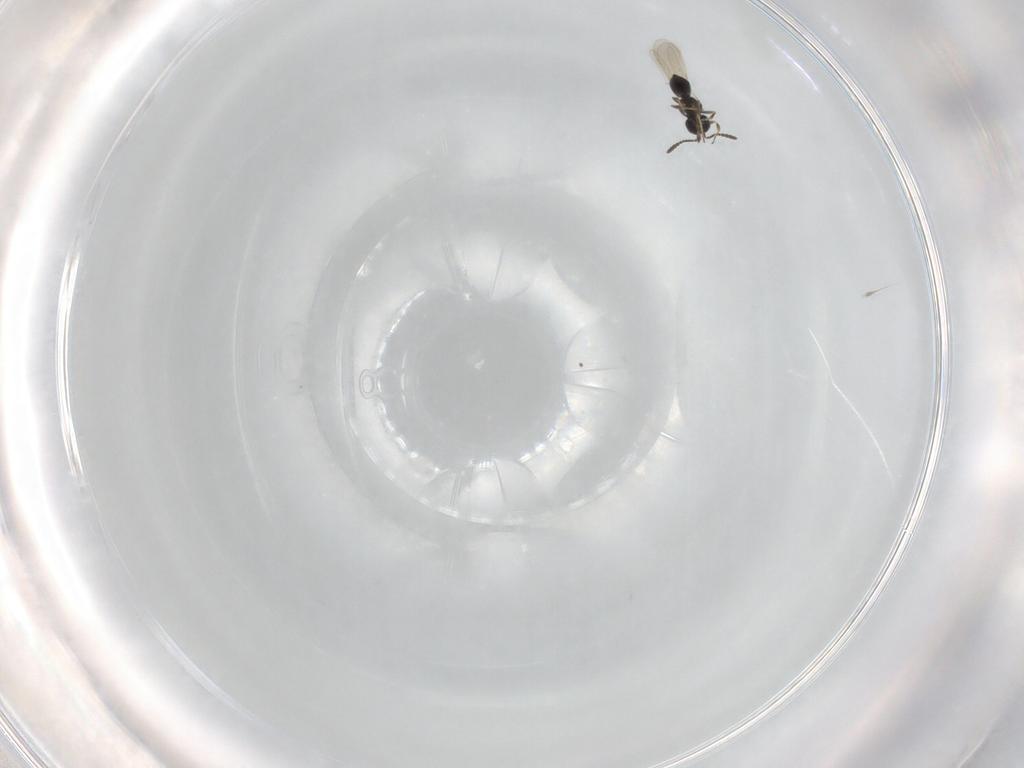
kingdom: Animalia
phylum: Arthropoda
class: Insecta
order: Hymenoptera
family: Scelionidae
